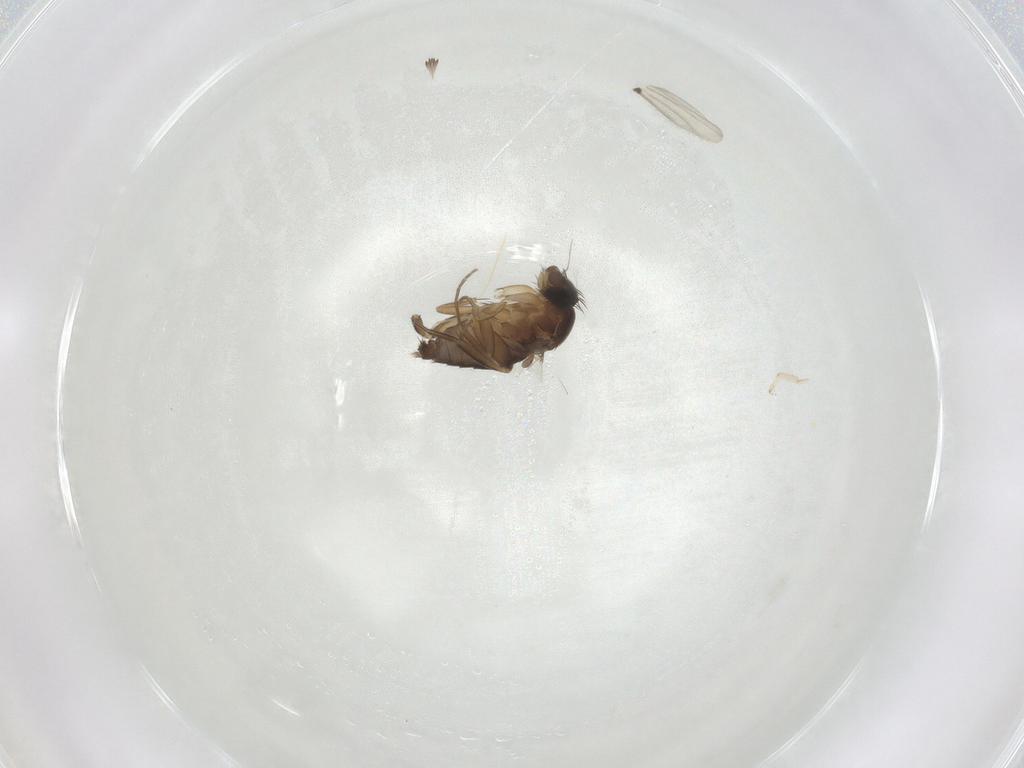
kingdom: Animalia
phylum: Arthropoda
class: Insecta
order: Diptera
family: Phoridae
